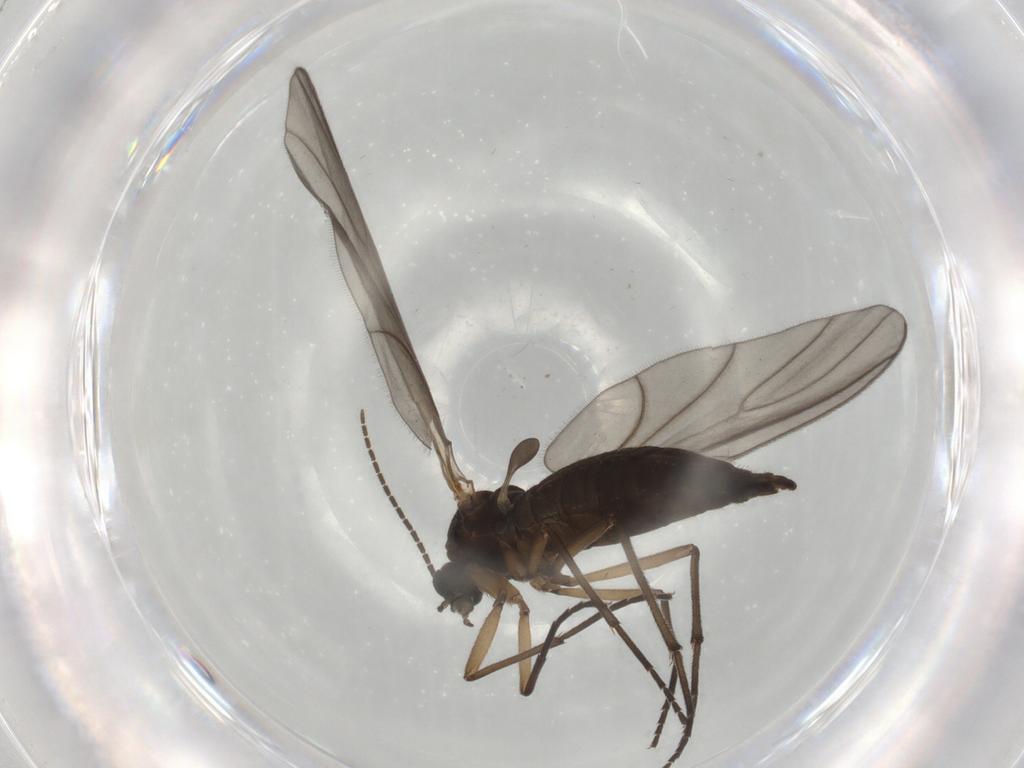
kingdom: Animalia
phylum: Arthropoda
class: Insecta
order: Diptera
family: Sciaridae
